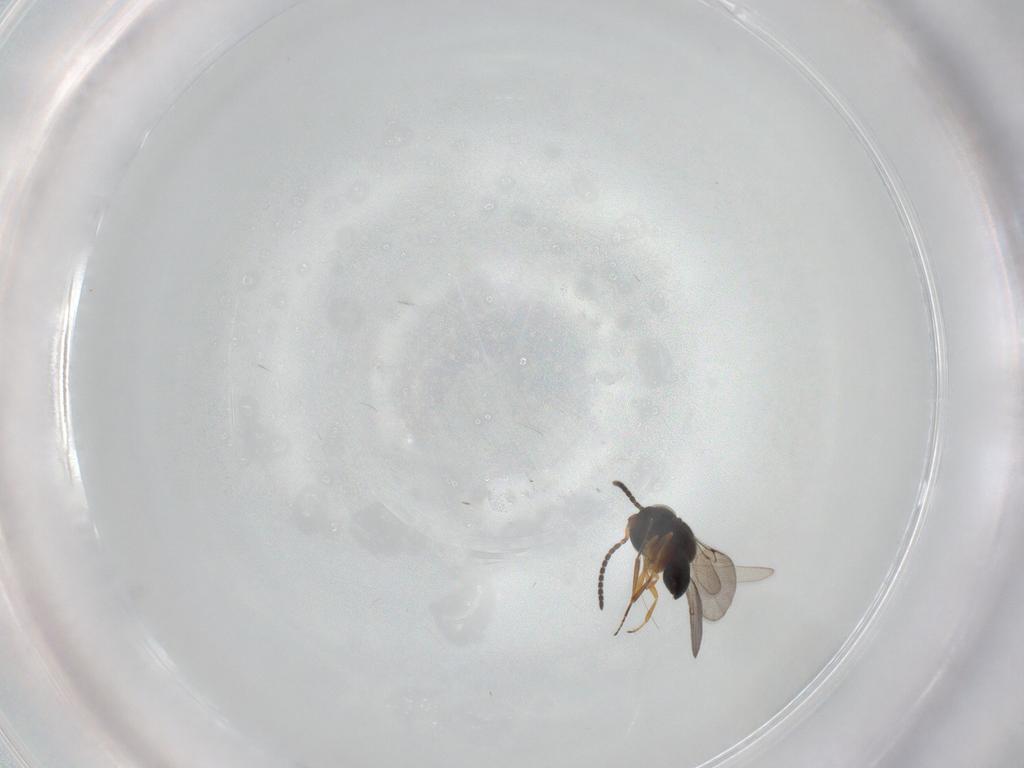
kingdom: Animalia
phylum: Arthropoda
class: Insecta
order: Hymenoptera
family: Scelionidae
